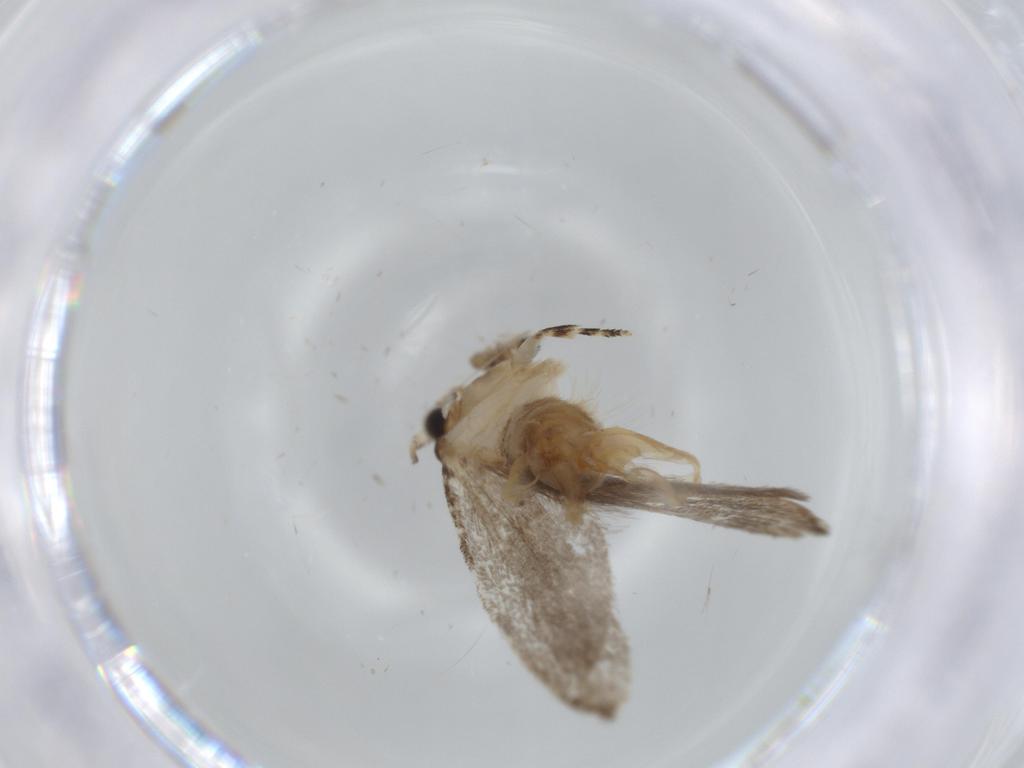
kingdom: Animalia
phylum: Arthropoda
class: Insecta
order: Lepidoptera
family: Tineidae
